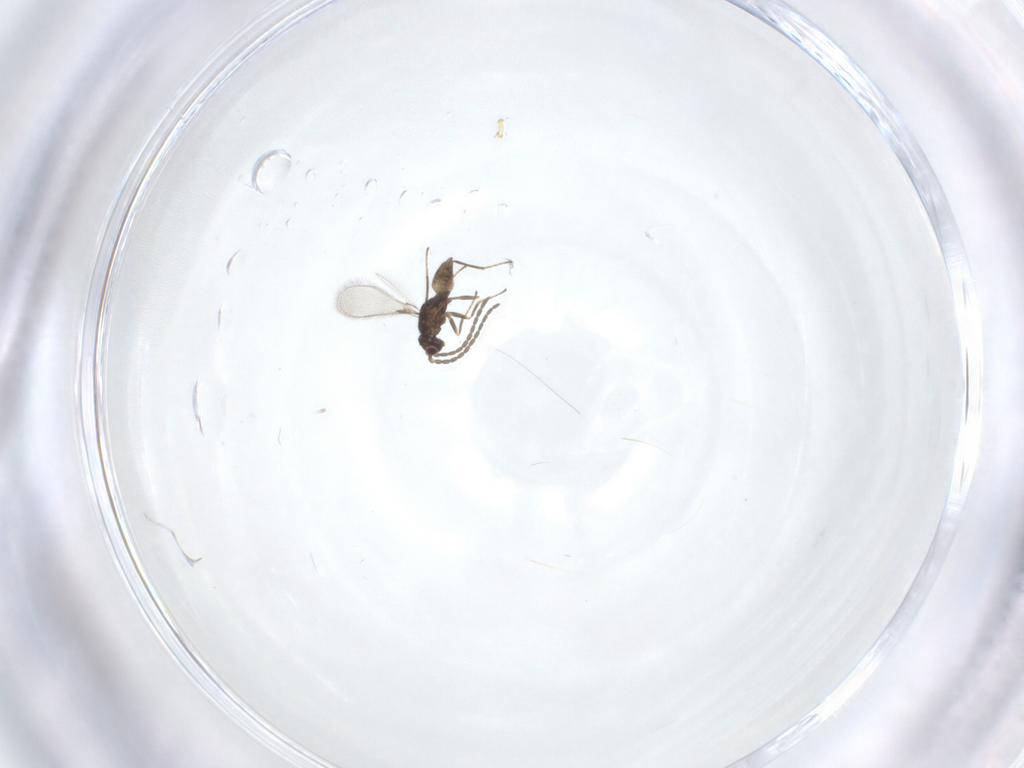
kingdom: Animalia
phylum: Arthropoda
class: Insecta
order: Hymenoptera
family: Mymaridae
